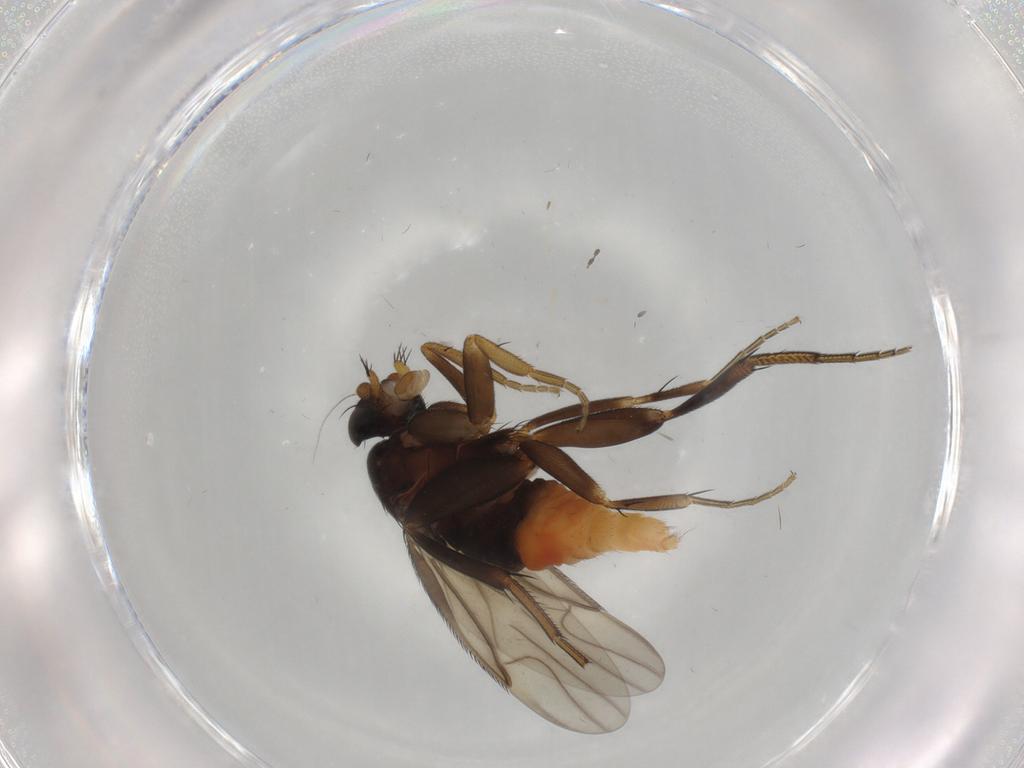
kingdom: Animalia
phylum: Arthropoda
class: Insecta
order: Diptera
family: Phoridae
